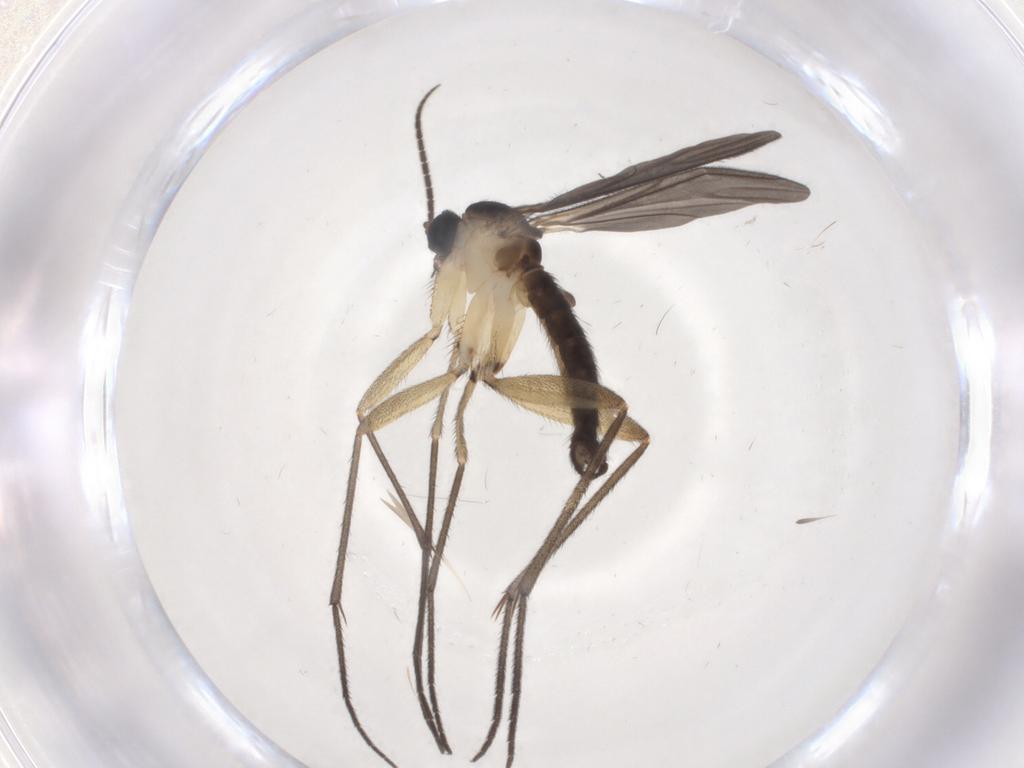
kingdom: Animalia
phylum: Arthropoda
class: Insecta
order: Diptera
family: Sciaridae
